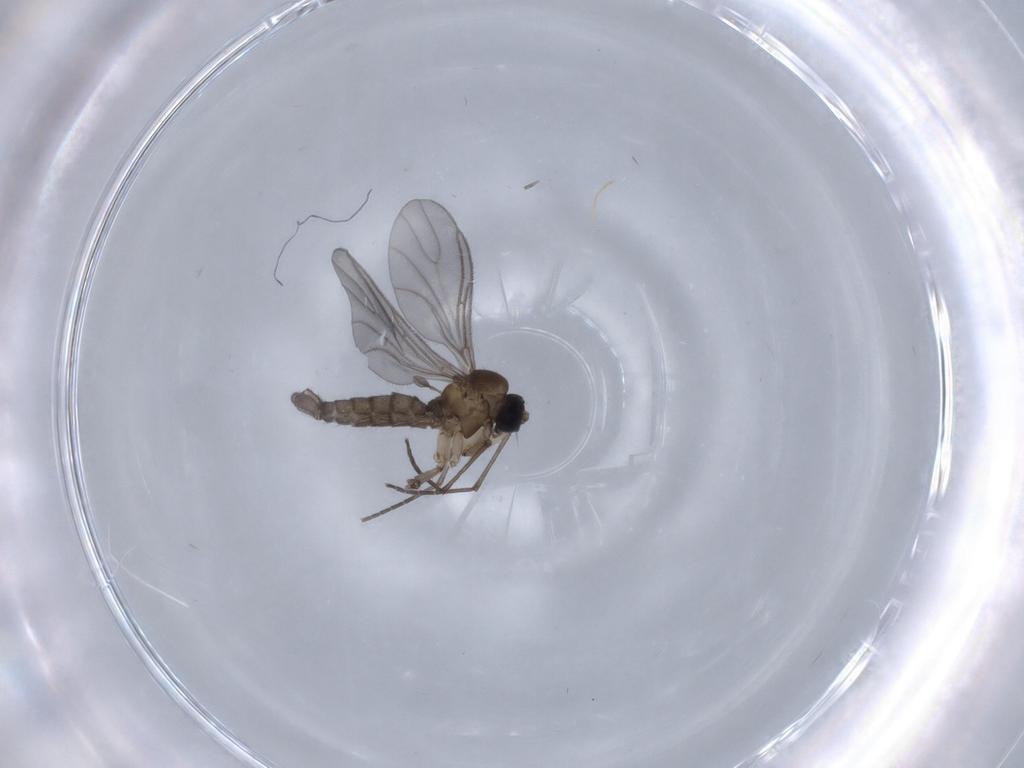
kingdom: Animalia
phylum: Arthropoda
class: Insecta
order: Diptera
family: Sciaridae
